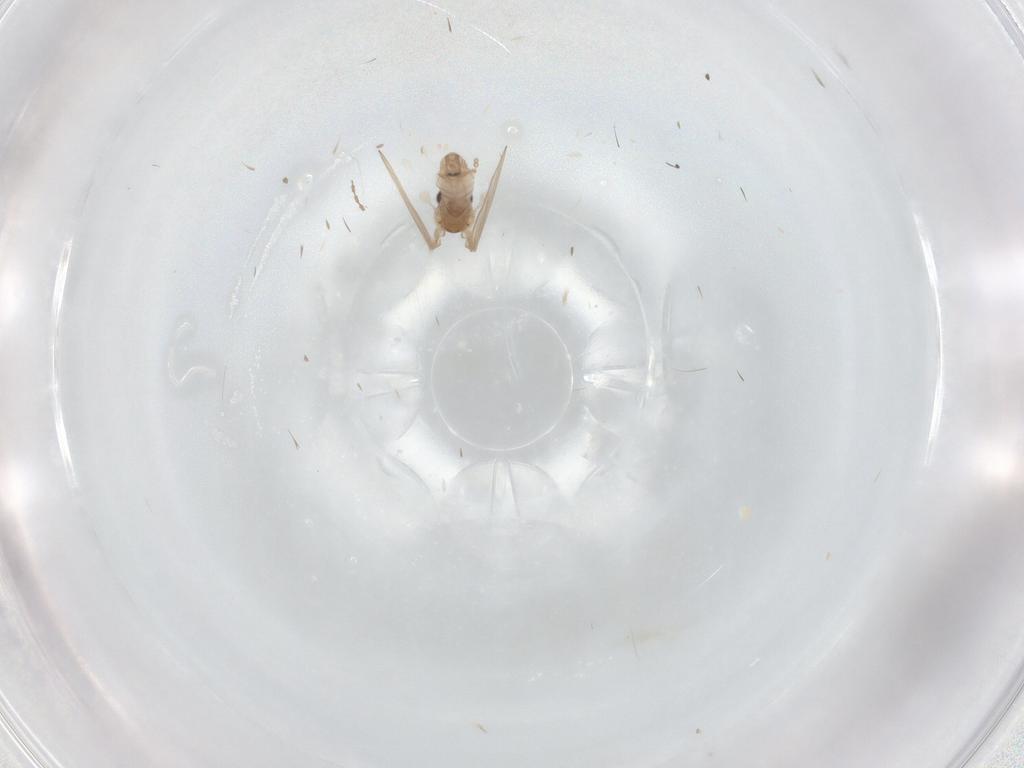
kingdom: Animalia
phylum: Arthropoda
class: Insecta
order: Diptera
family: Psychodidae
